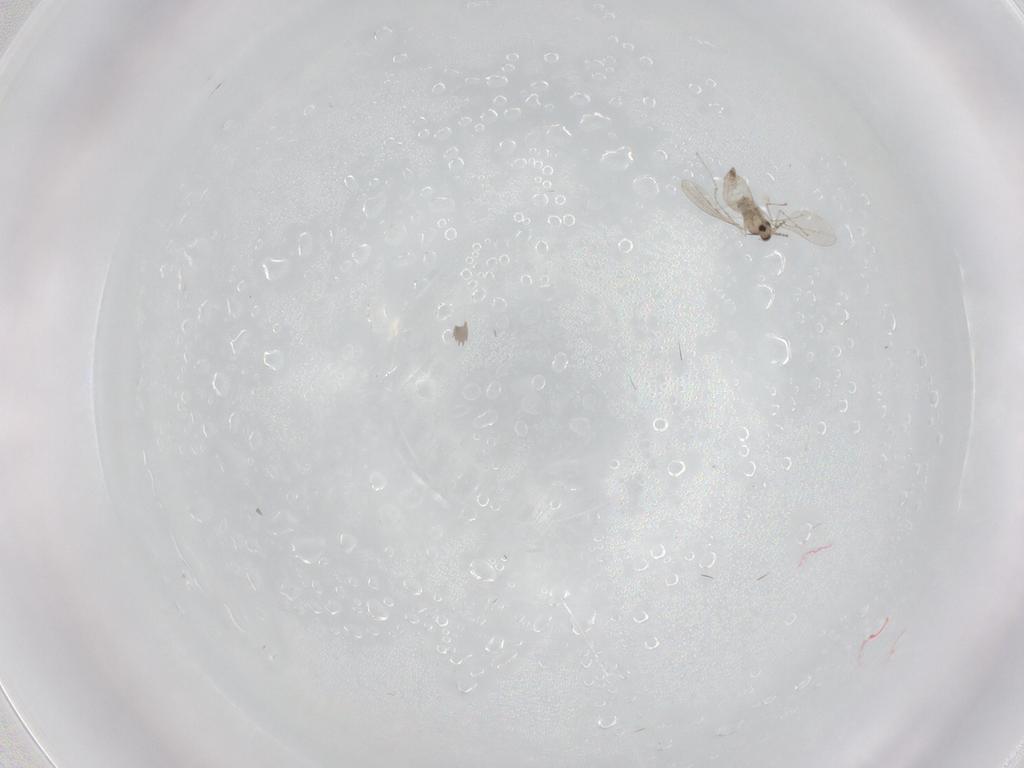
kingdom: Animalia
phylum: Arthropoda
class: Insecta
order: Diptera
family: Cecidomyiidae
